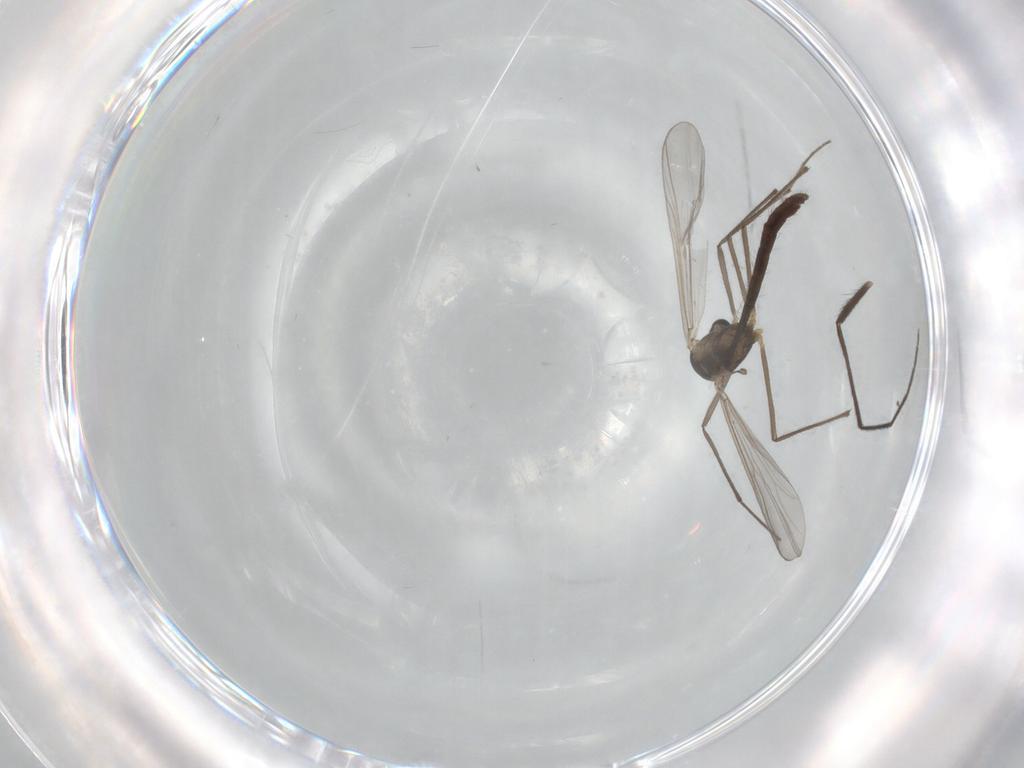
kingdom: Animalia
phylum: Arthropoda
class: Insecta
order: Diptera
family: Chironomidae
